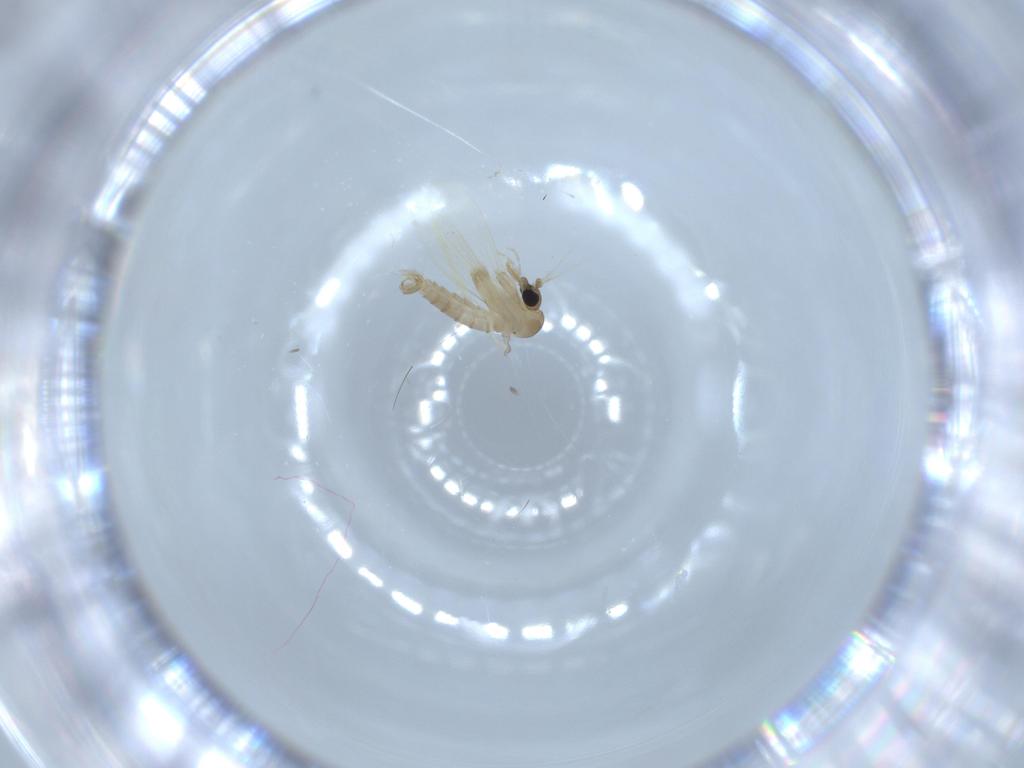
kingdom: Animalia
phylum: Arthropoda
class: Insecta
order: Diptera
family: Psychodidae
